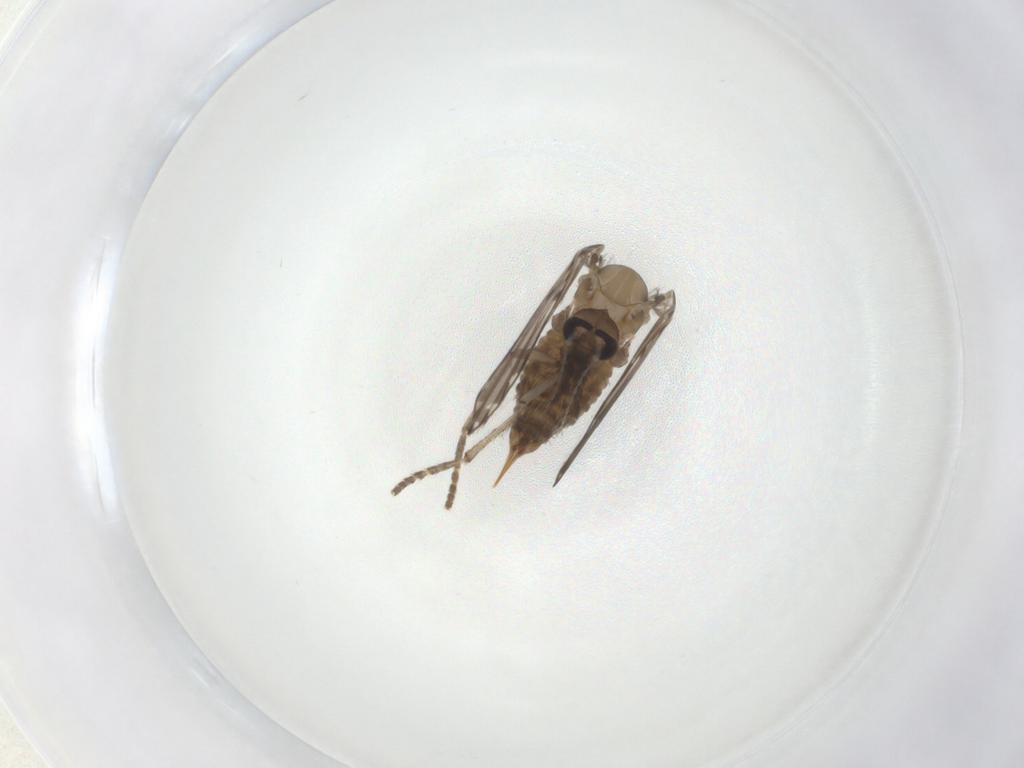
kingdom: Animalia
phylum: Arthropoda
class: Insecta
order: Diptera
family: Psychodidae
